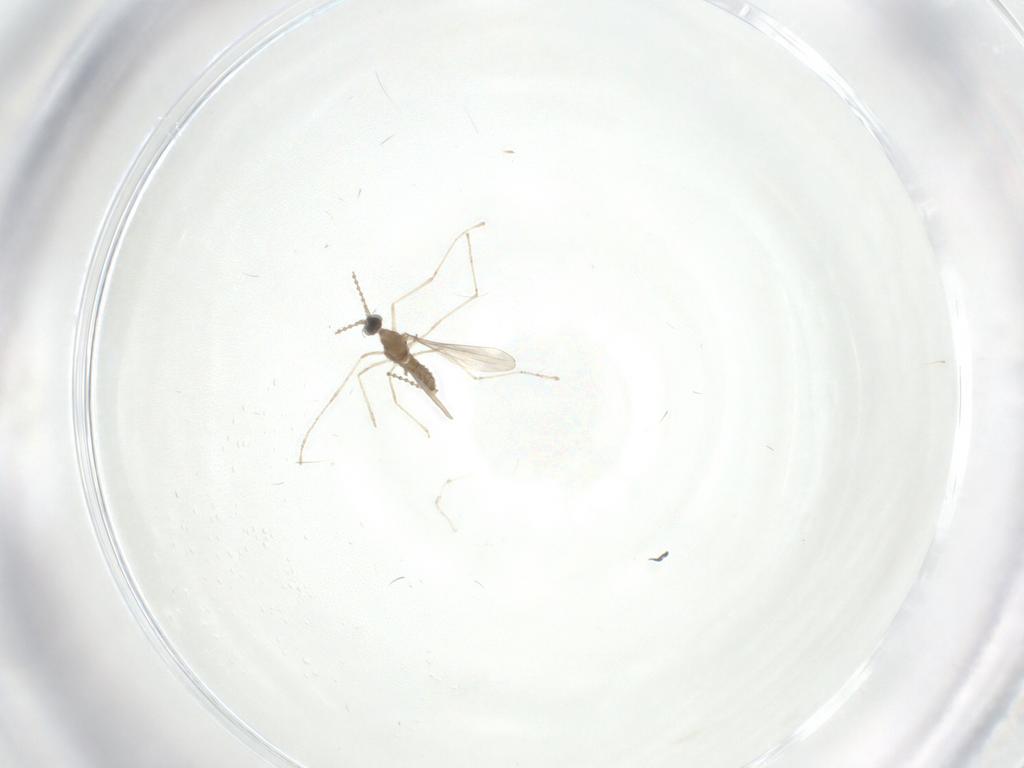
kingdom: Animalia
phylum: Arthropoda
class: Insecta
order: Diptera
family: Cecidomyiidae
